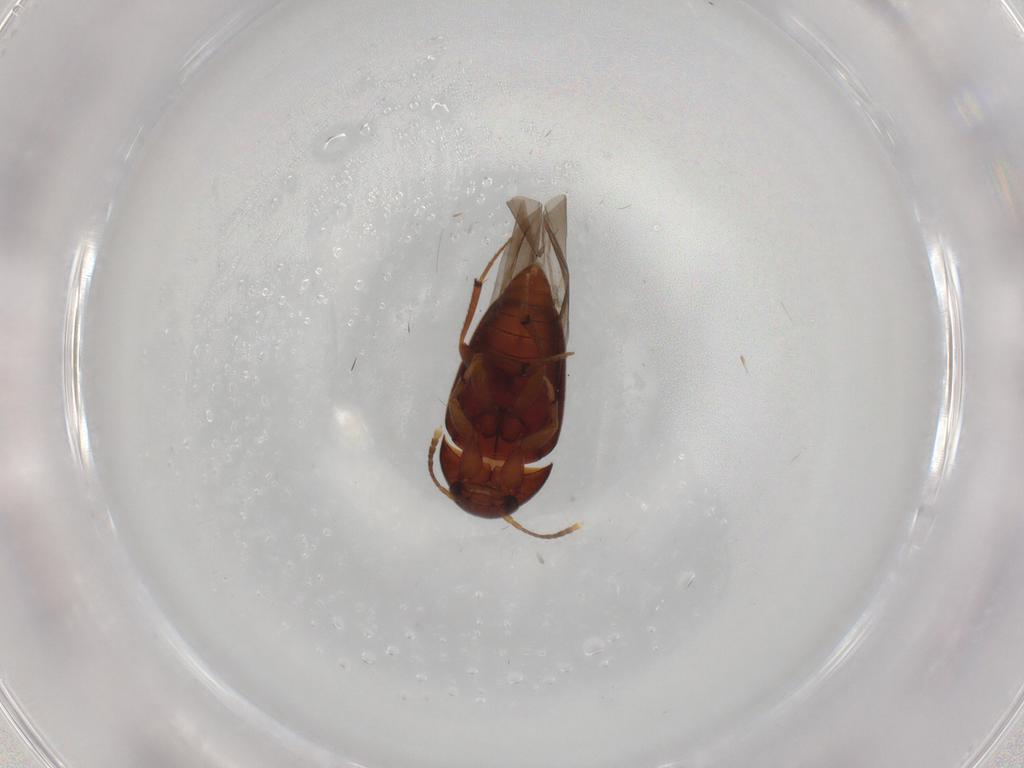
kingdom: Animalia
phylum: Arthropoda
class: Insecta
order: Coleoptera
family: Leiodidae
